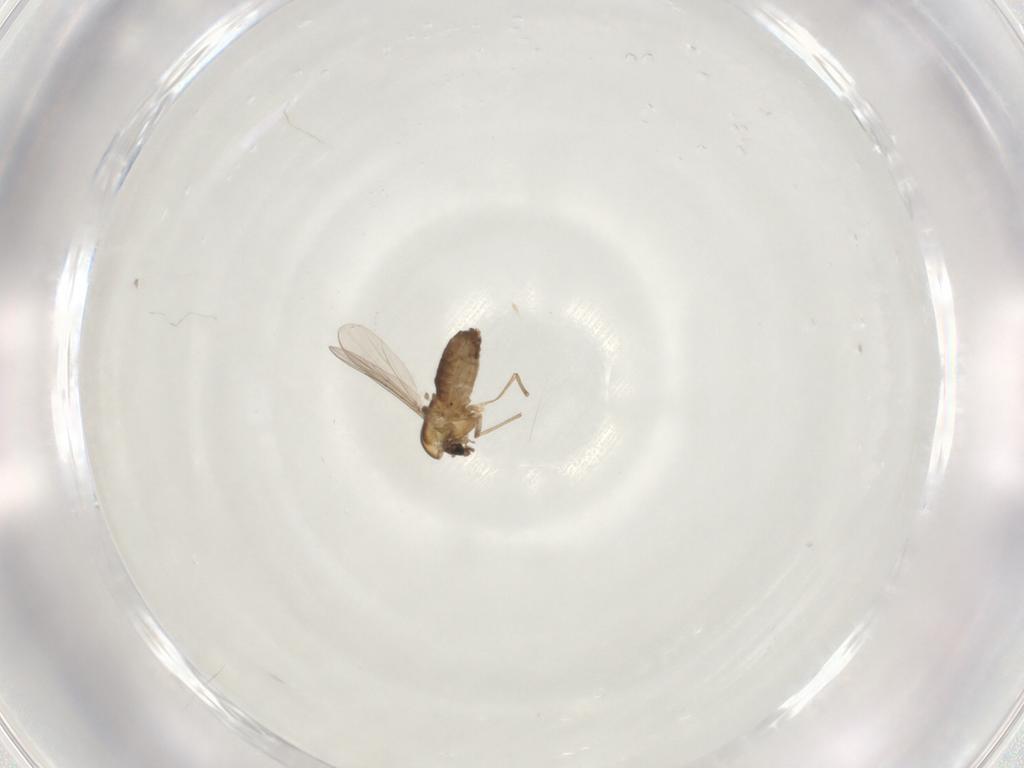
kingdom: Animalia
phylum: Arthropoda
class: Insecta
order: Diptera
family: Chironomidae
